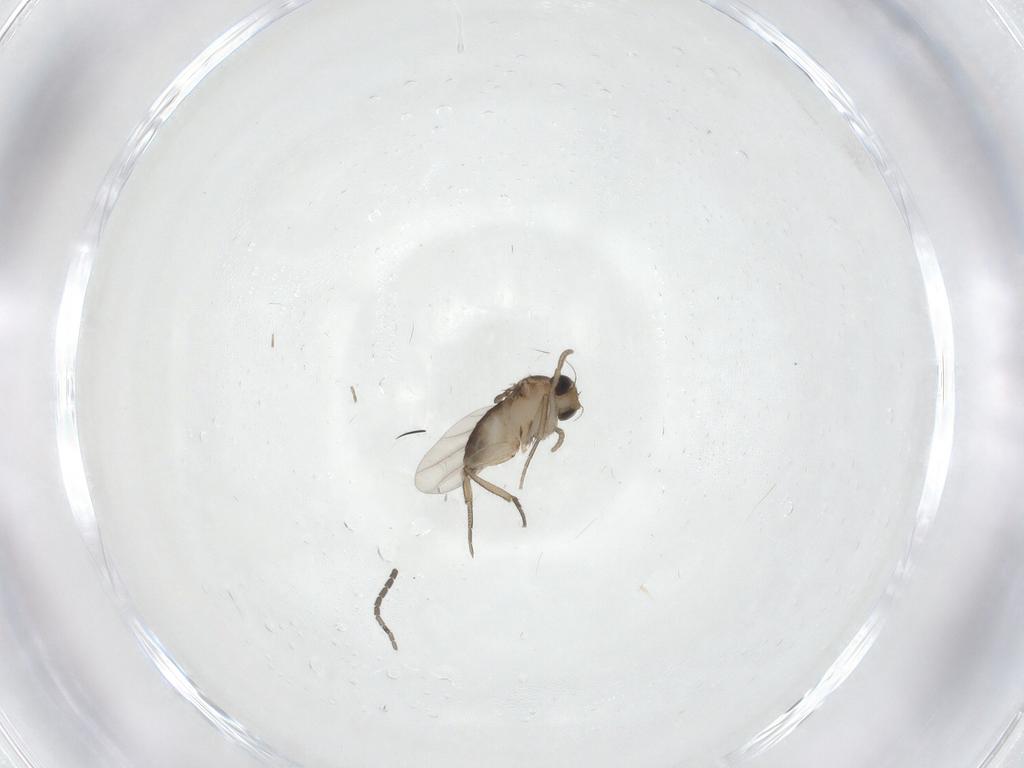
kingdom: Animalia
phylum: Arthropoda
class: Insecta
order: Diptera
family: Phoridae
